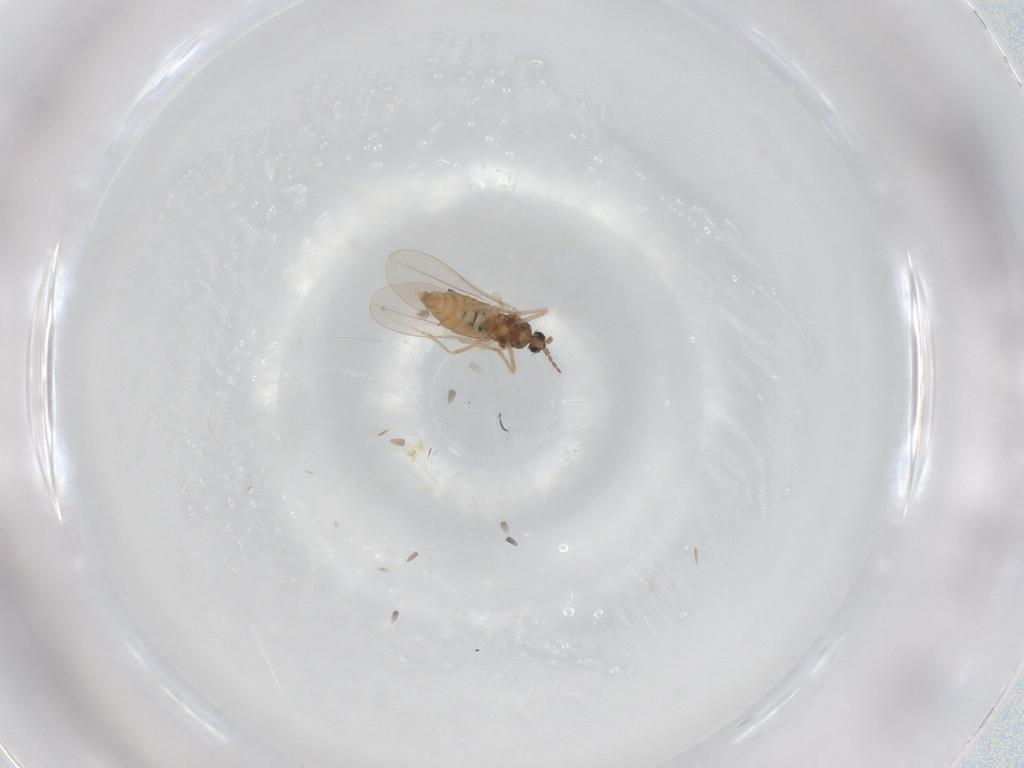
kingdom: Animalia
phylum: Arthropoda
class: Insecta
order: Diptera
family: Cecidomyiidae
